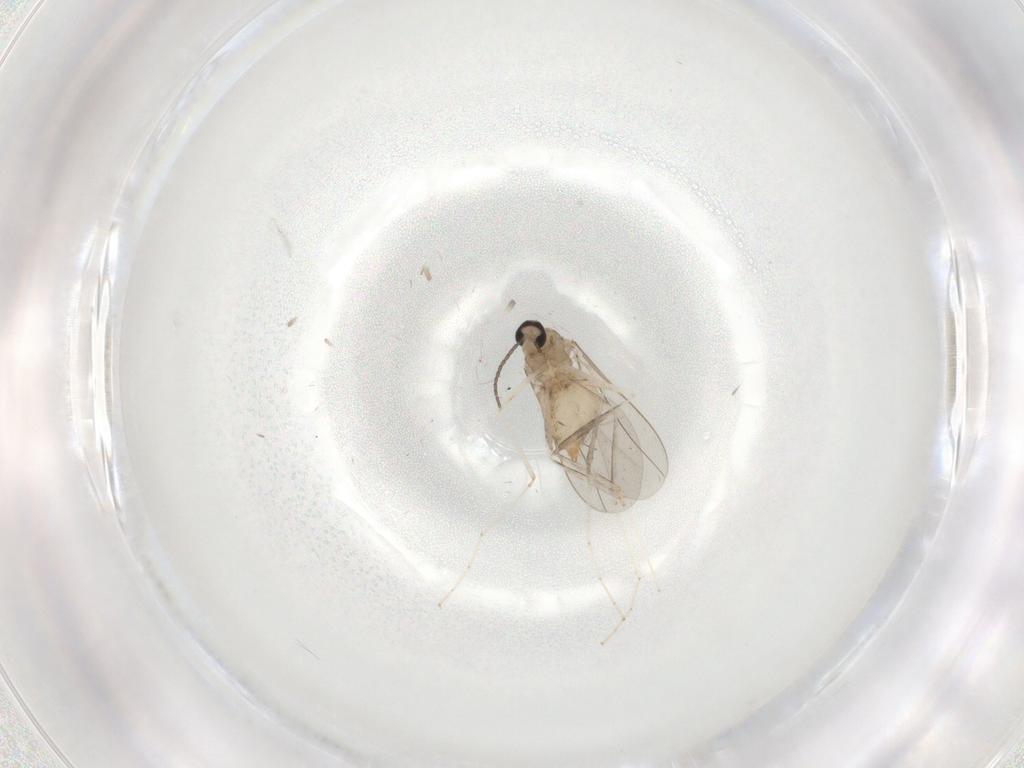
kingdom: Animalia
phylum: Arthropoda
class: Insecta
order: Diptera
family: Cecidomyiidae
